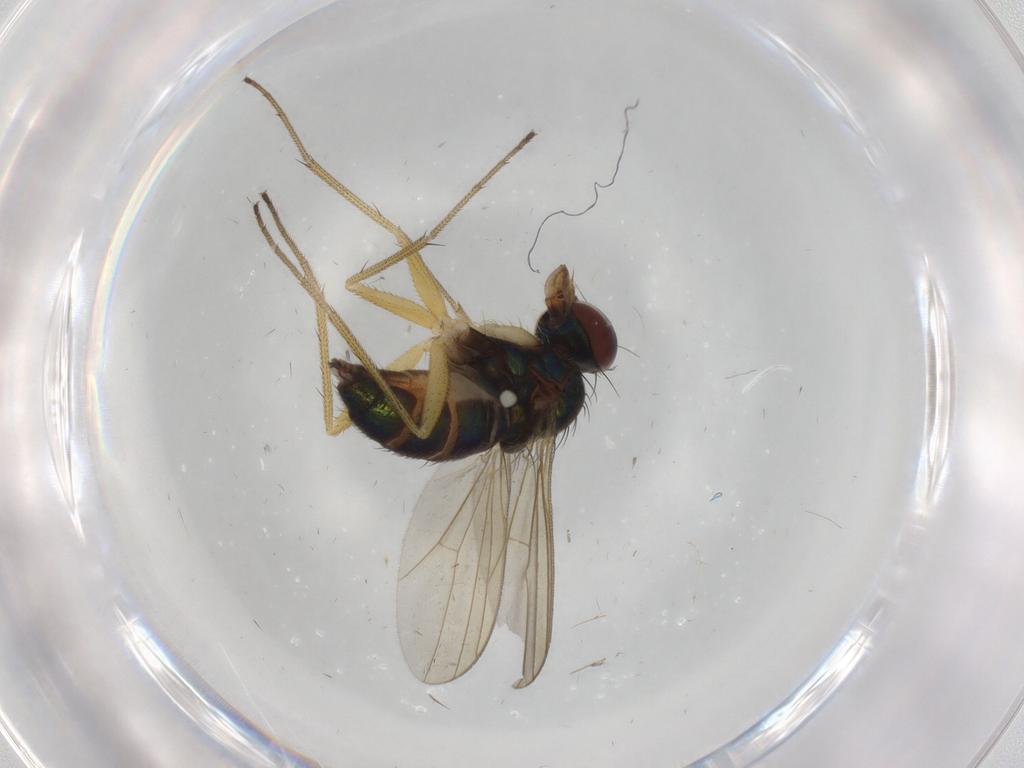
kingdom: Animalia
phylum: Arthropoda
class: Insecta
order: Diptera
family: Dolichopodidae
